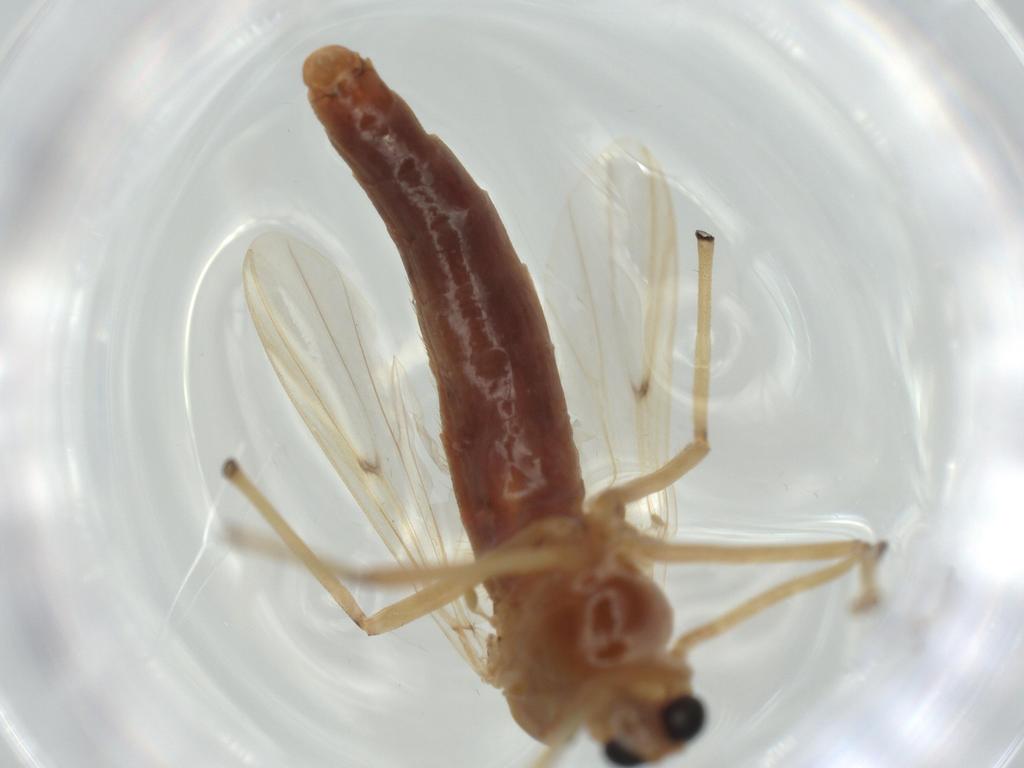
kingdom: Animalia
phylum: Arthropoda
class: Insecta
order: Diptera
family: Chironomidae
